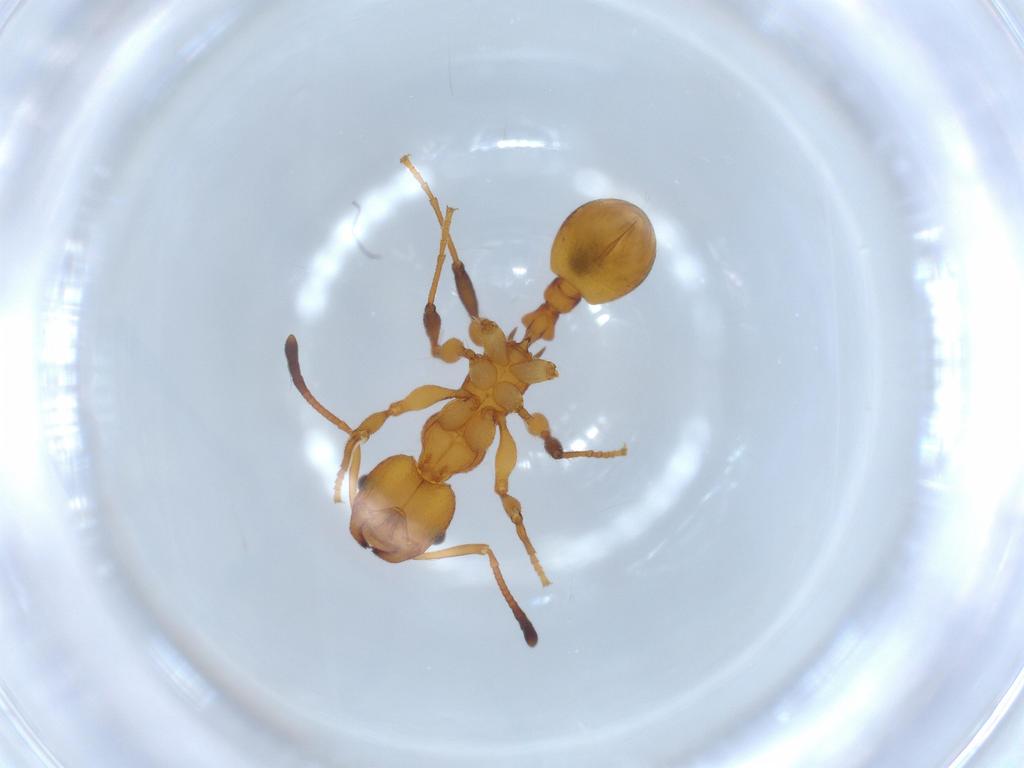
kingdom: Animalia
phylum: Arthropoda
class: Insecta
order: Hymenoptera
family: Formicidae
